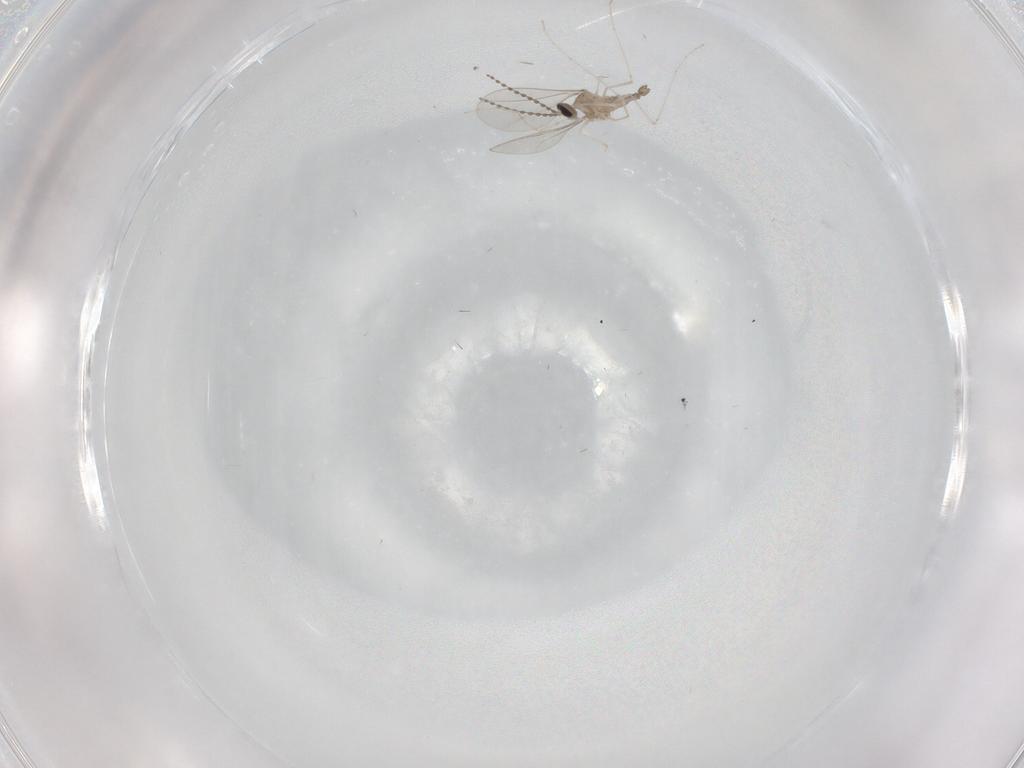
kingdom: Animalia
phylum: Arthropoda
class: Insecta
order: Diptera
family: Cecidomyiidae
